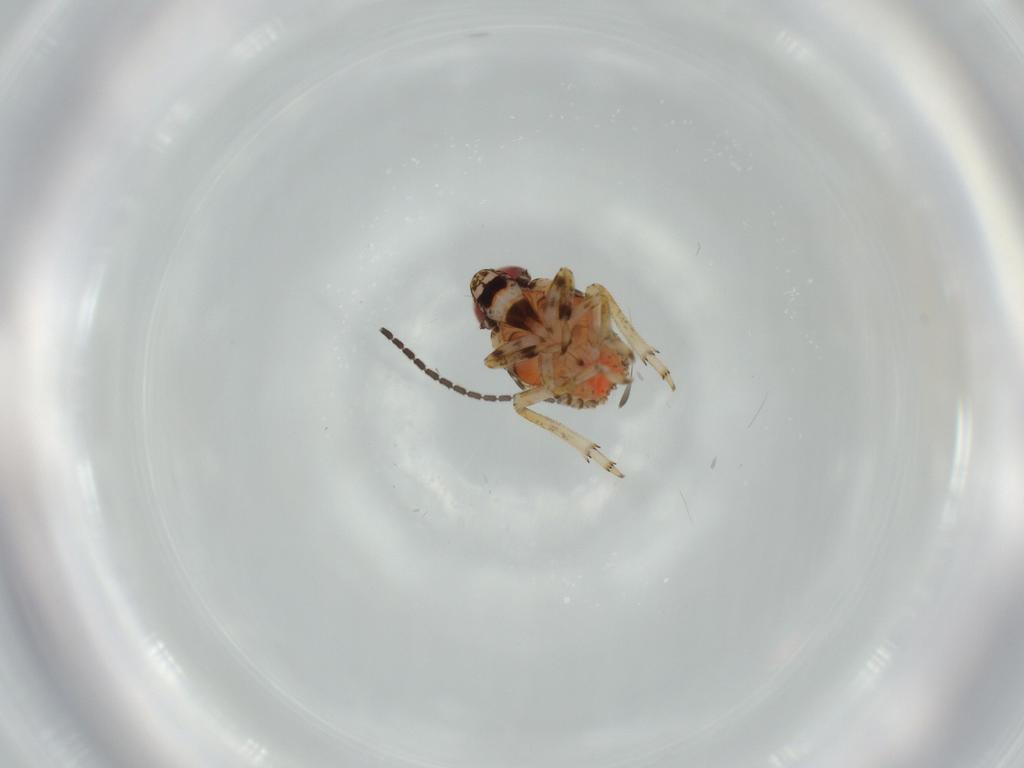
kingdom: Animalia
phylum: Arthropoda
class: Insecta
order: Hemiptera
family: Issidae
